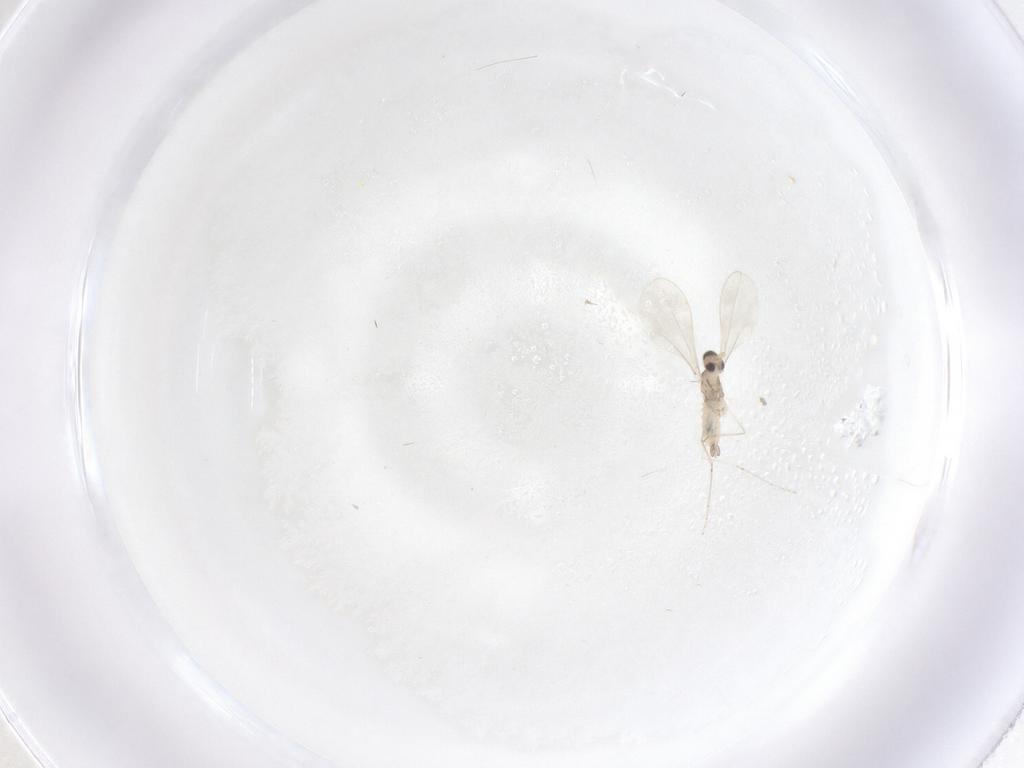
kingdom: Animalia
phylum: Arthropoda
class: Insecta
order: Diptera
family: Cecidomyiidae
